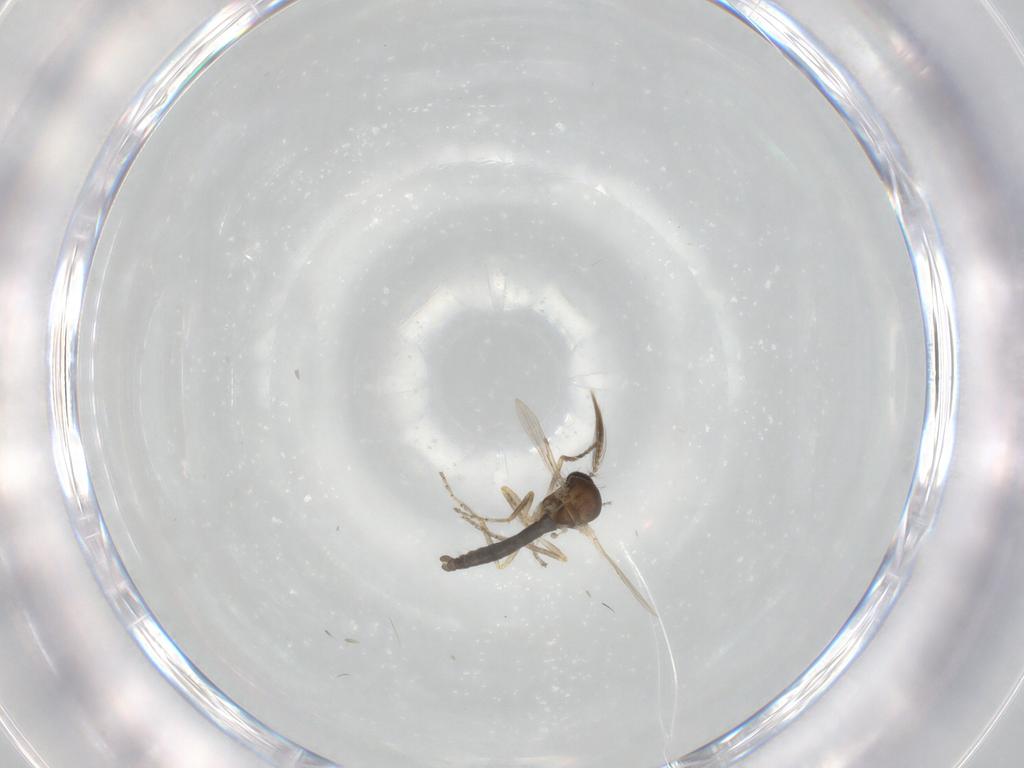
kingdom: Animalia
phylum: Arthropoda
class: Insecta
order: Diptera
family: Ceratopogonidae
